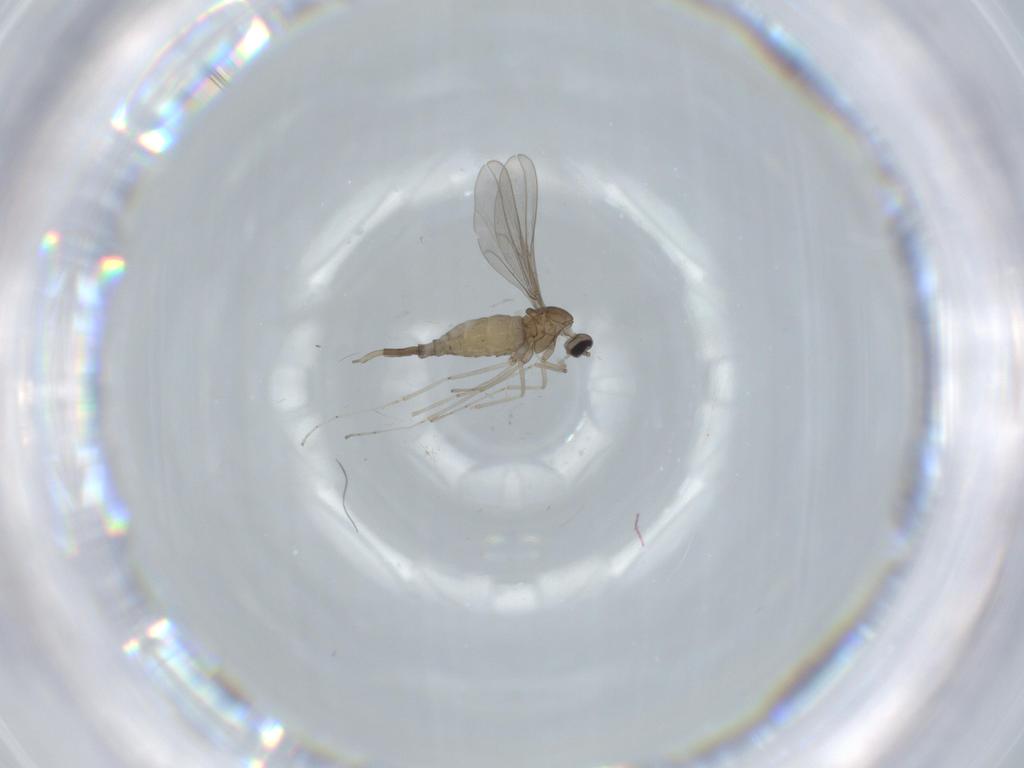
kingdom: Animalia
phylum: Arthropoda
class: Insecta
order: Diptera
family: Cecidomyiidae
